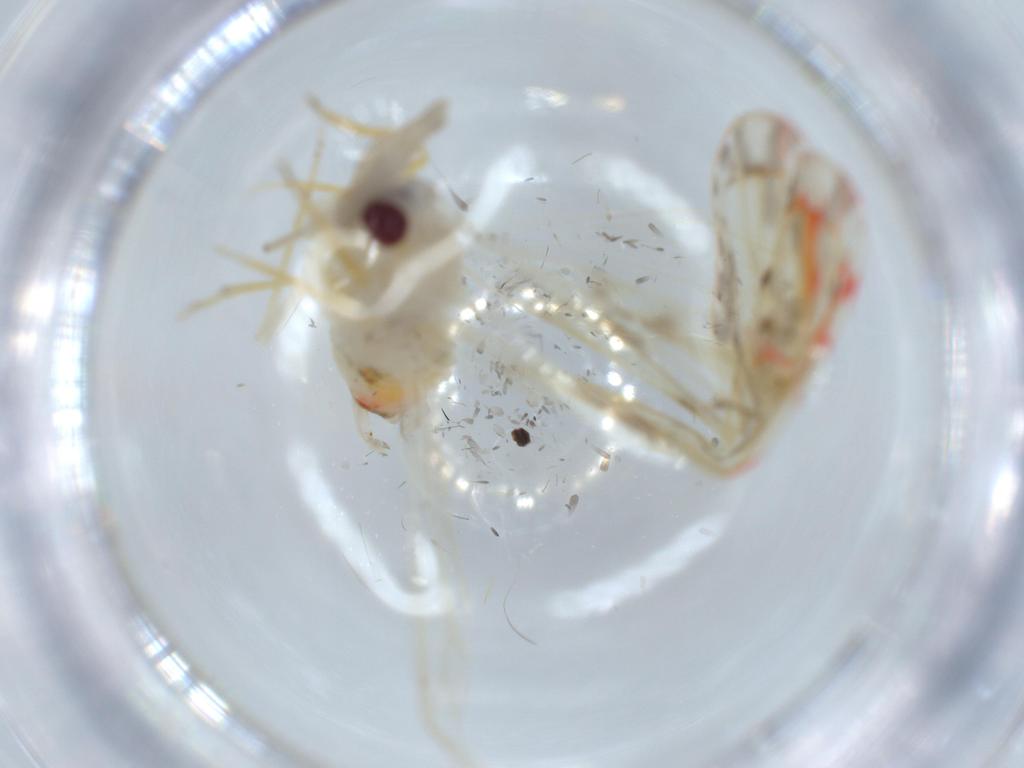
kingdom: Animalia
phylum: Arthropoda
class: Insecta
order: Hemiptera
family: Derbidae
